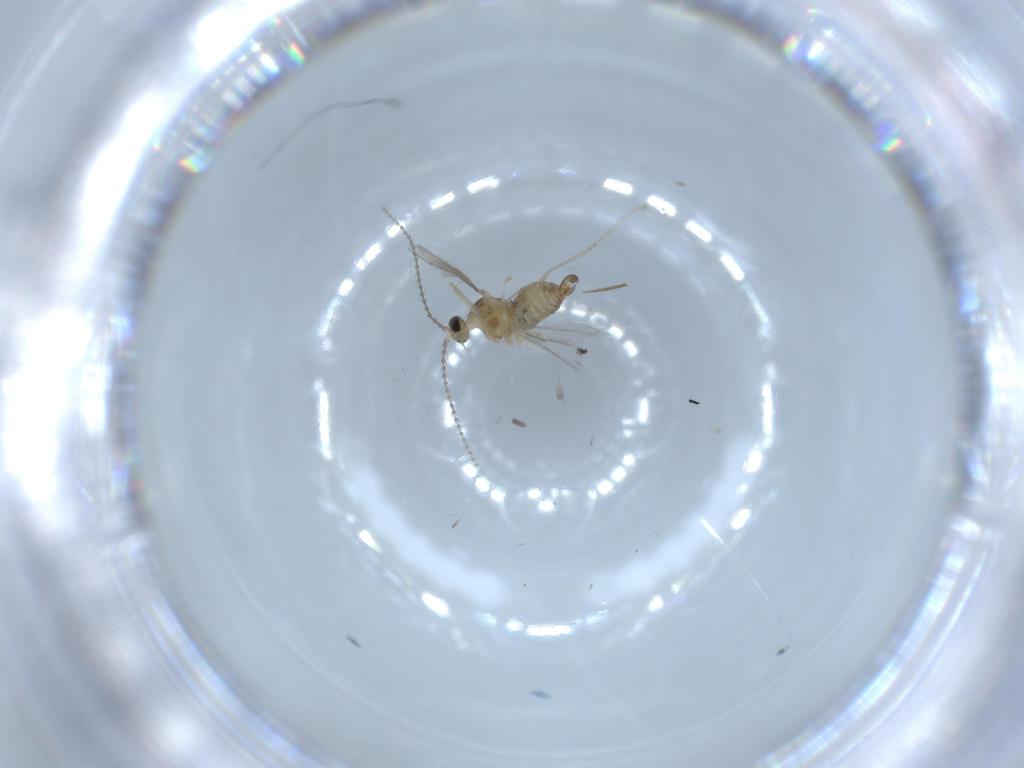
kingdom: Animalia
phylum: Arthropoda
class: Insecta
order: Diptera
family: Cecidomyiidae
